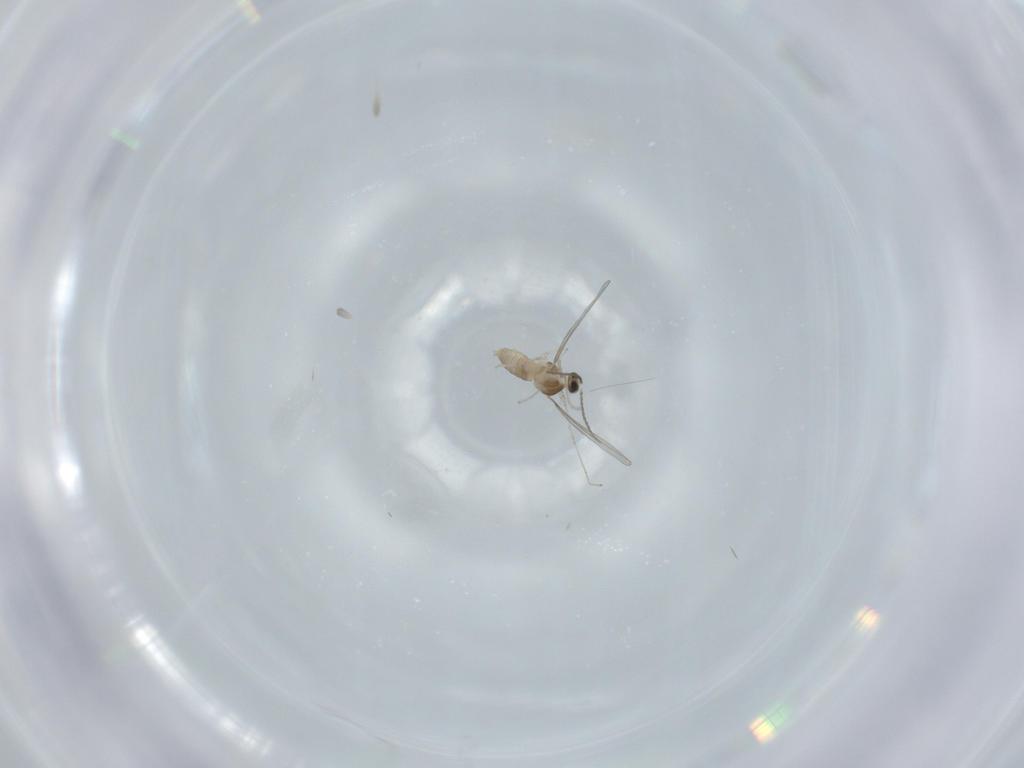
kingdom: Animalia
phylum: Arthropoda
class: Insecta
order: Diptera
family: Cecidomyiidae
